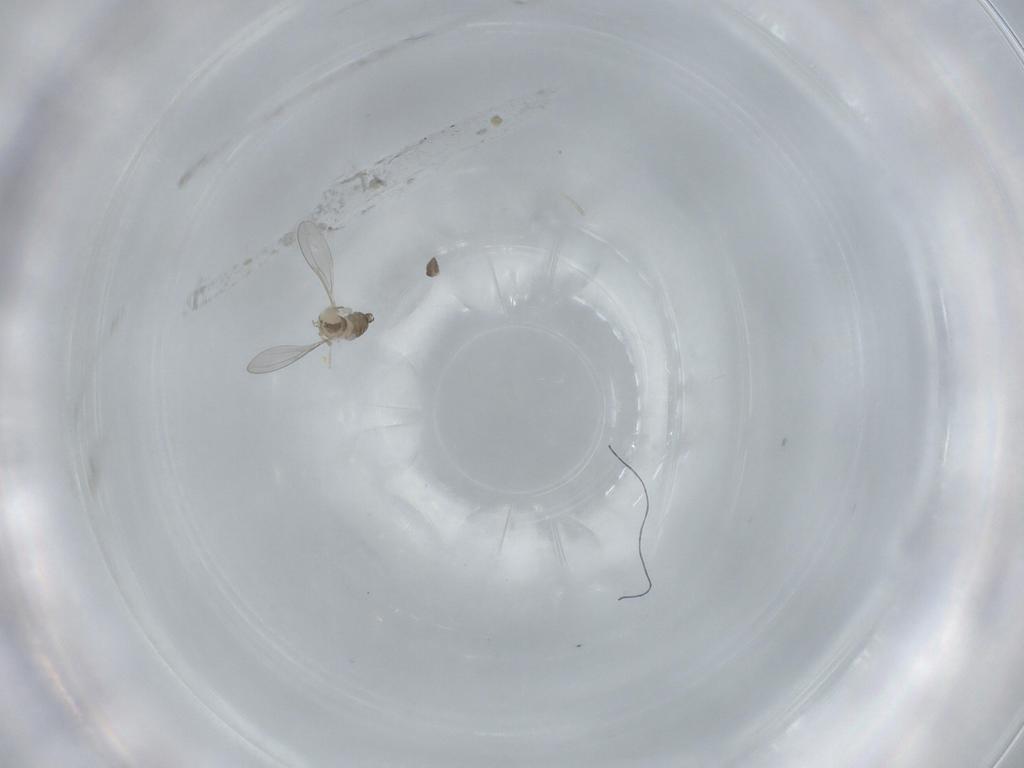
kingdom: Animalia
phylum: Arthropoda
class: Insecta
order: Diptera
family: Cecidomyiidae
